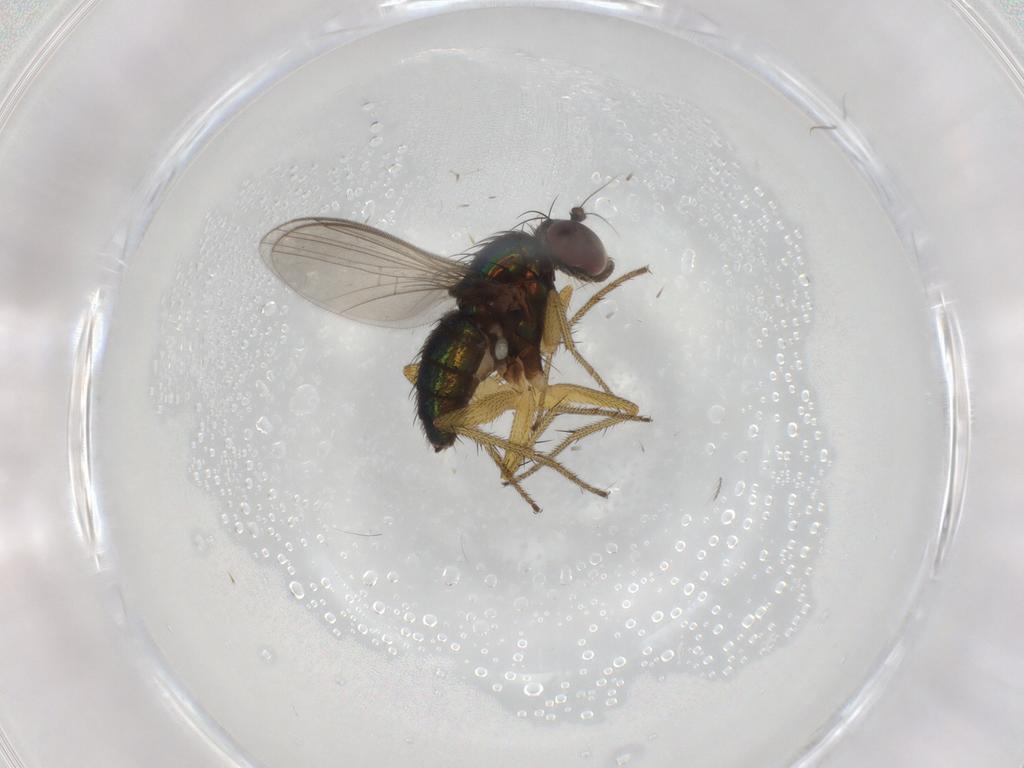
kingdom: Animalia
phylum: Arthropoda
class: Insecta
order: Diptera
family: Dolichopodidae
